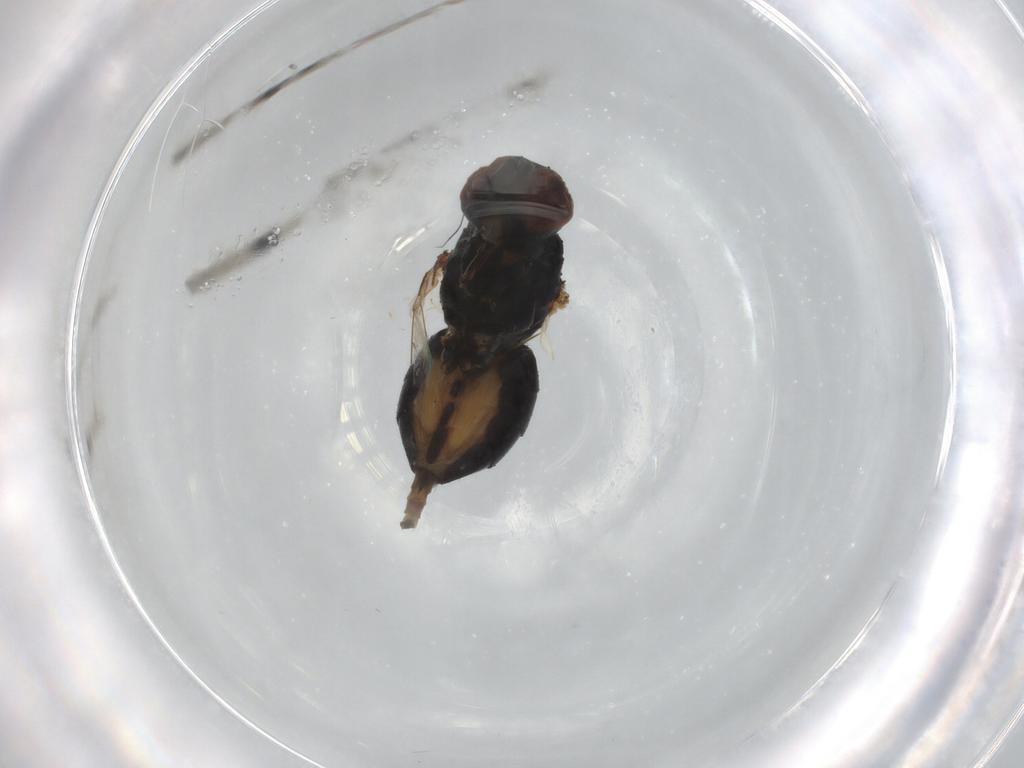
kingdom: Animalia
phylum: Arthropoda
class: Insecta
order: Diptera
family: Muscidae
